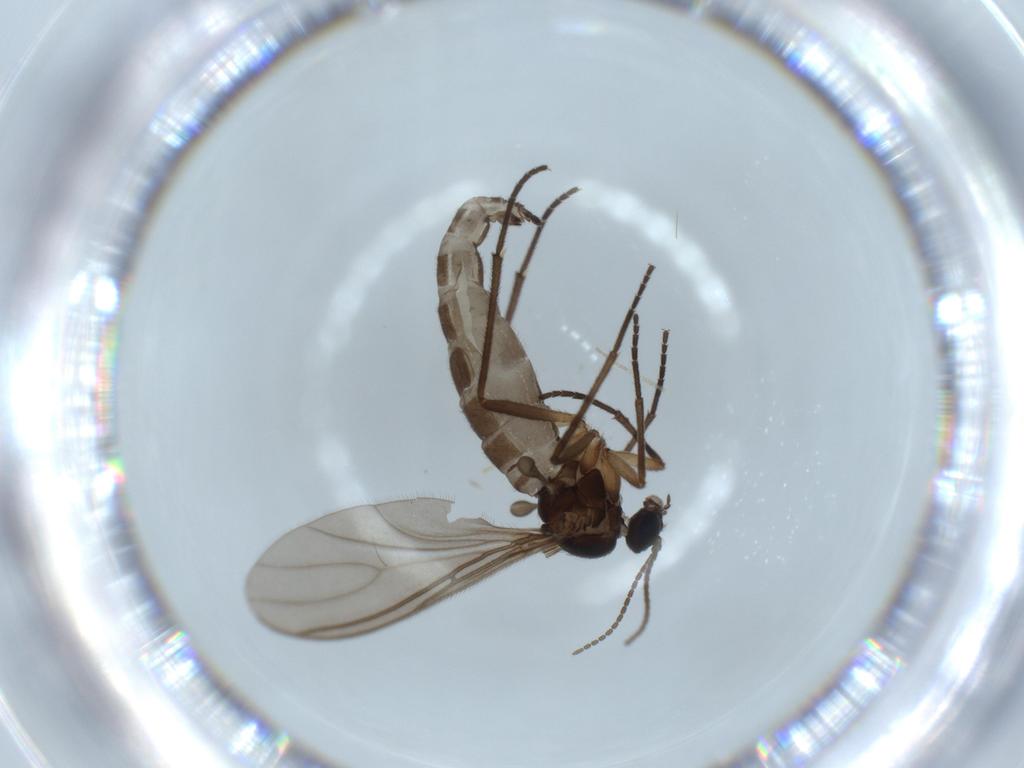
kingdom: Animalia
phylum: Arthropoda
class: Insecta
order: Diptera
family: Sciaridae
